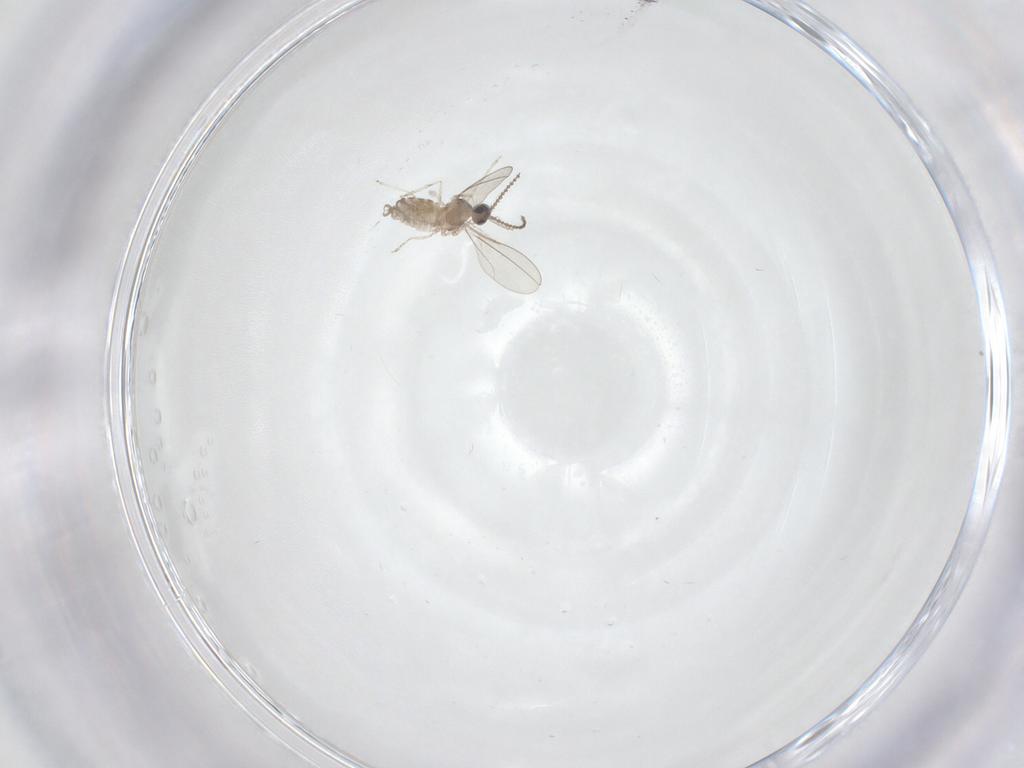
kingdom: Animalia
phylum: Arthropoda
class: Insecta
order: Diptera
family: Cecidomyiidae
